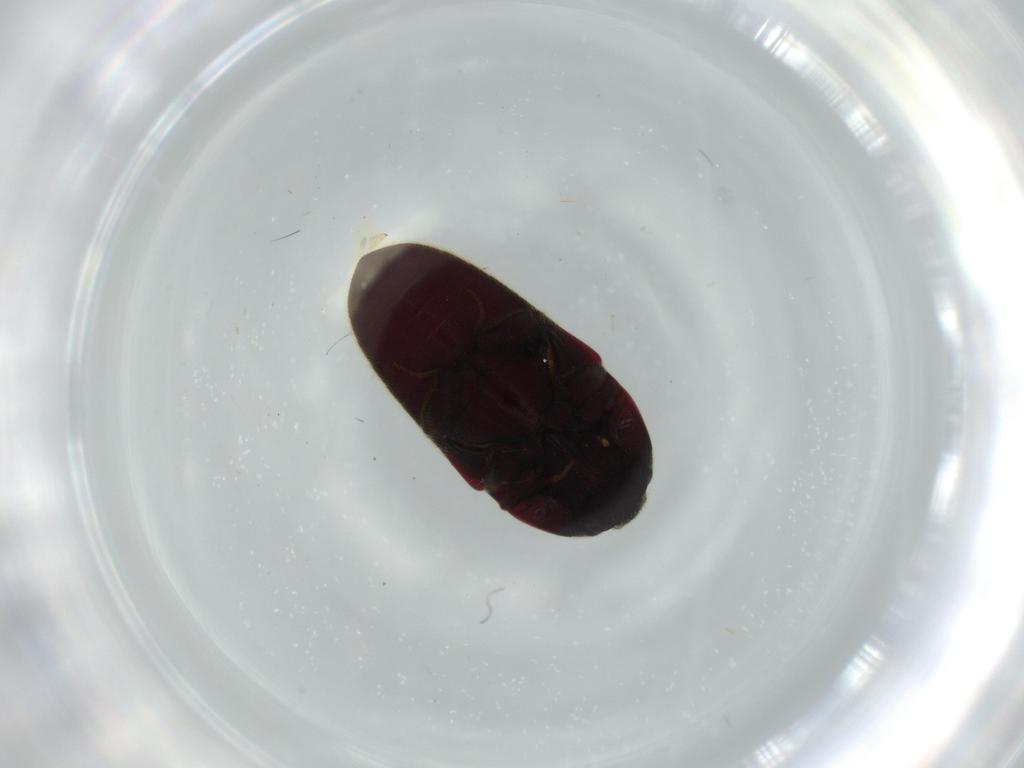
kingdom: Animalia
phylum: Arthropoda
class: Insecta
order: Coleoptera
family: Throscidae
